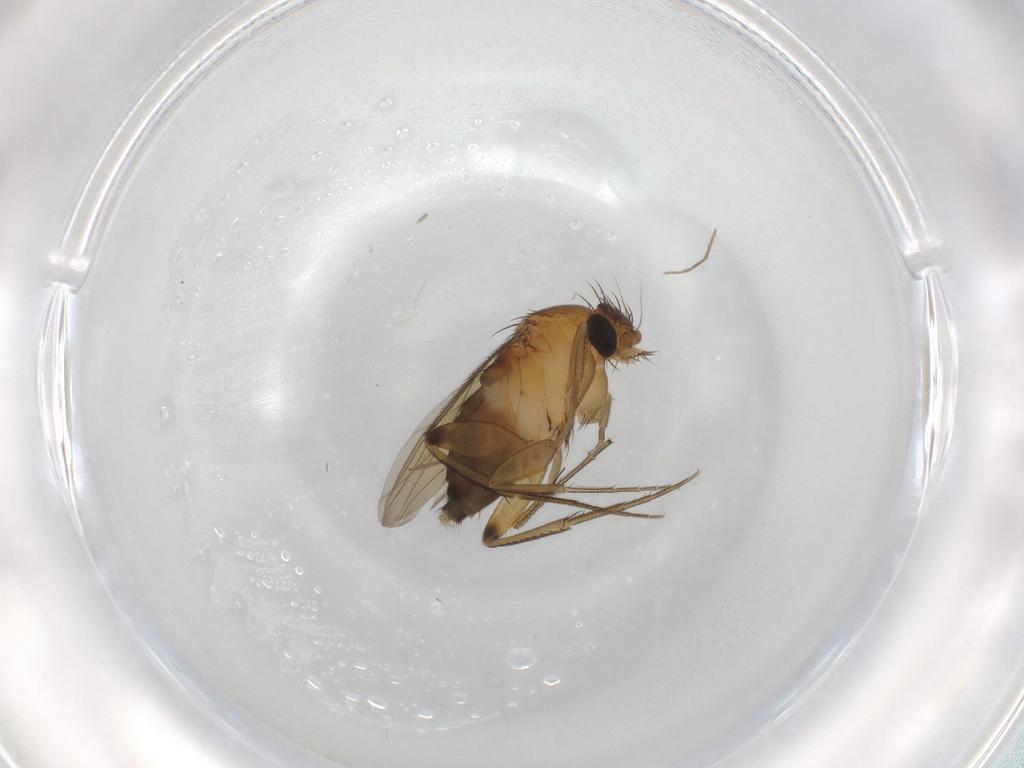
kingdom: Animalia
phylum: Arthropoda
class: Insecta
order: Diptera
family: Phoridae
